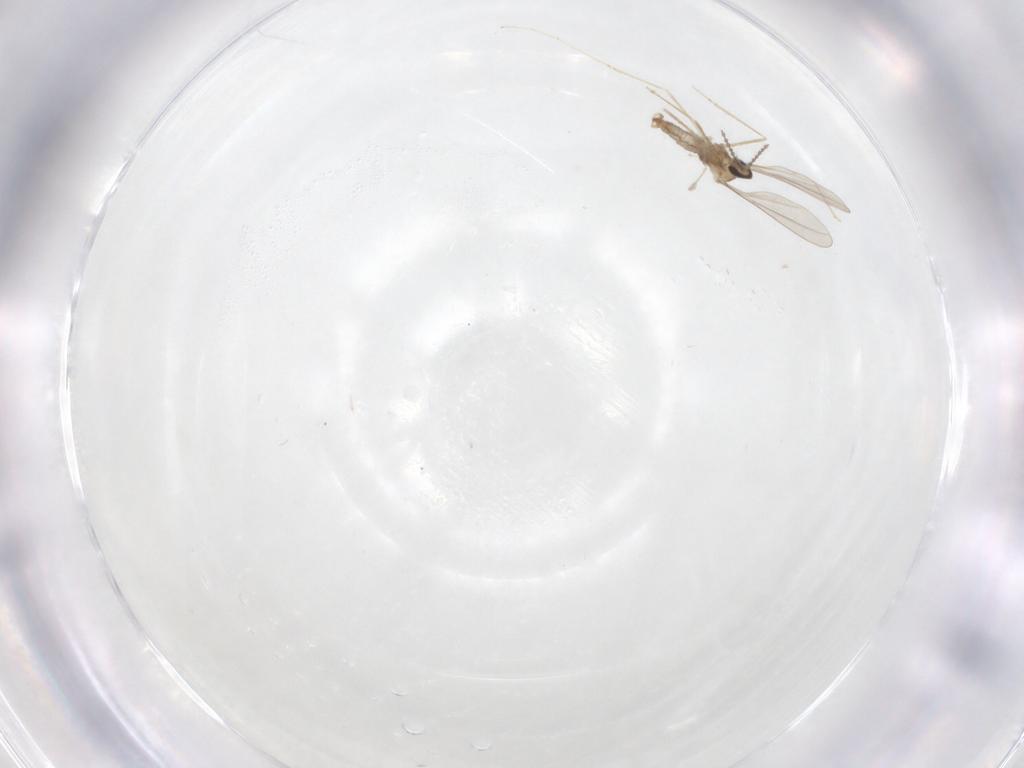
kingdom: Animalia
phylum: Arthropoda
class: Insecta
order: Diptera
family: Cecidomyiidae
